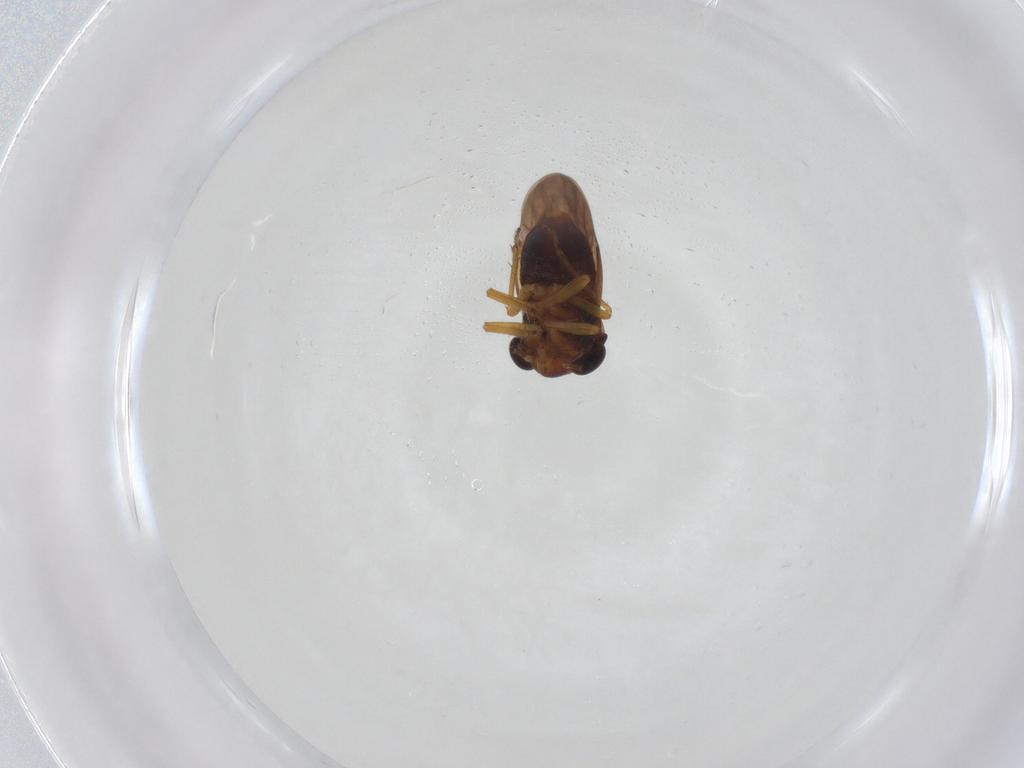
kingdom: Animalia
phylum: Arthropoda
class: Insecta
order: Hemiptera
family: Schizopteridae
